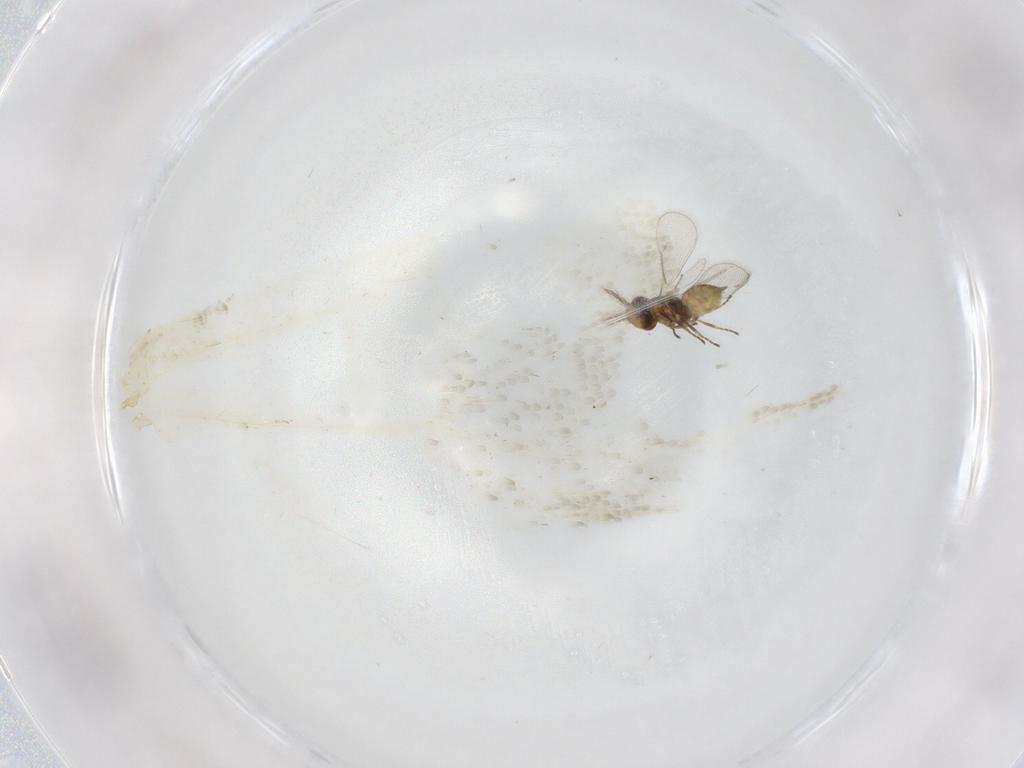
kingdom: Animalia
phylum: Arthropoda
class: Insecta
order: Hymenoptera
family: Eulophidae
